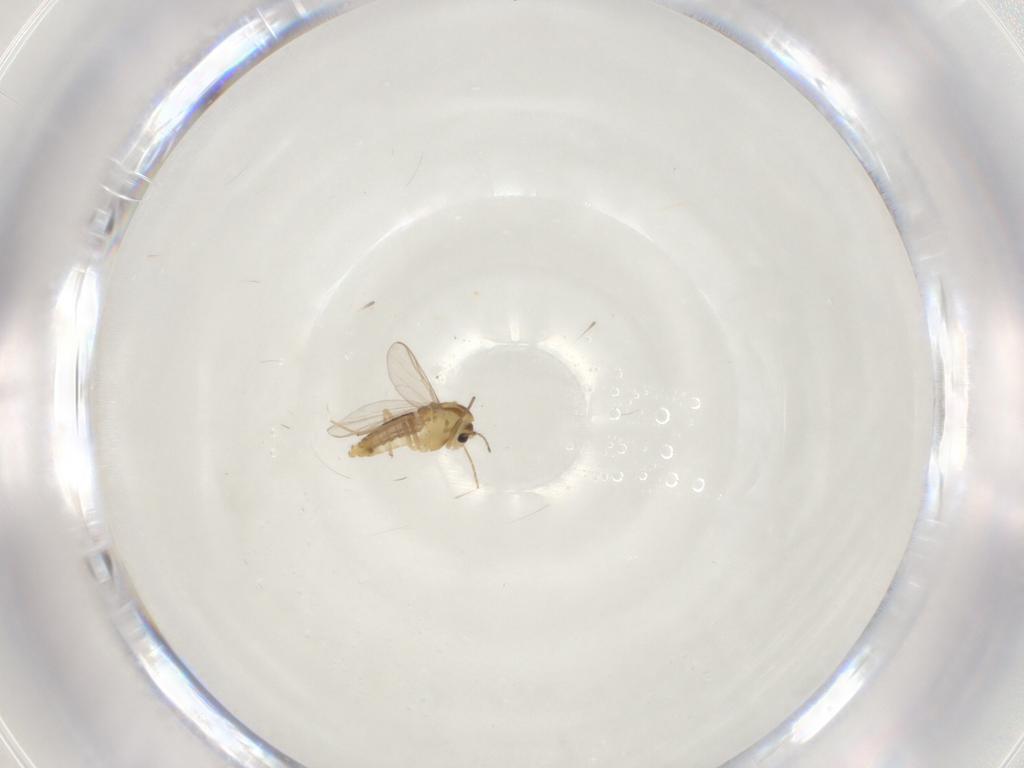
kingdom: Animalia
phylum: Arthropoda
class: Insecta
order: Diptera
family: Chironomidae
